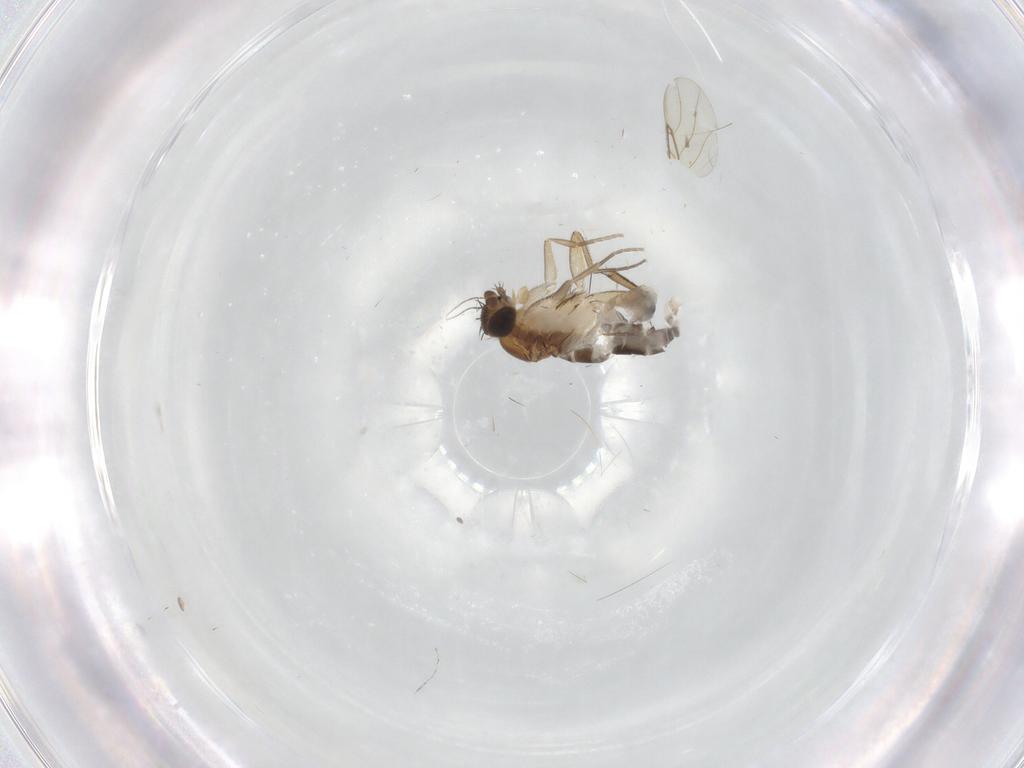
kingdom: Animalia
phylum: Arthropoda
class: Insecta
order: Diptera
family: Phoridae
